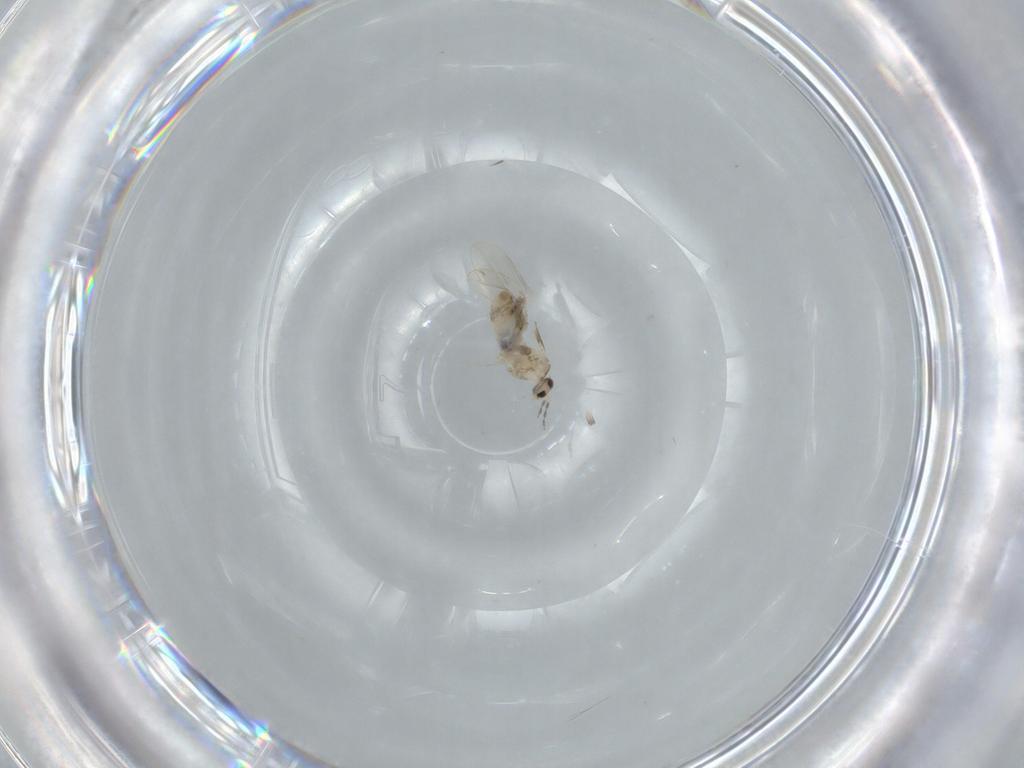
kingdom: Animalia
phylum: Arthropoda
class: Insecta
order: Diptera
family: Cecidomyiidae
